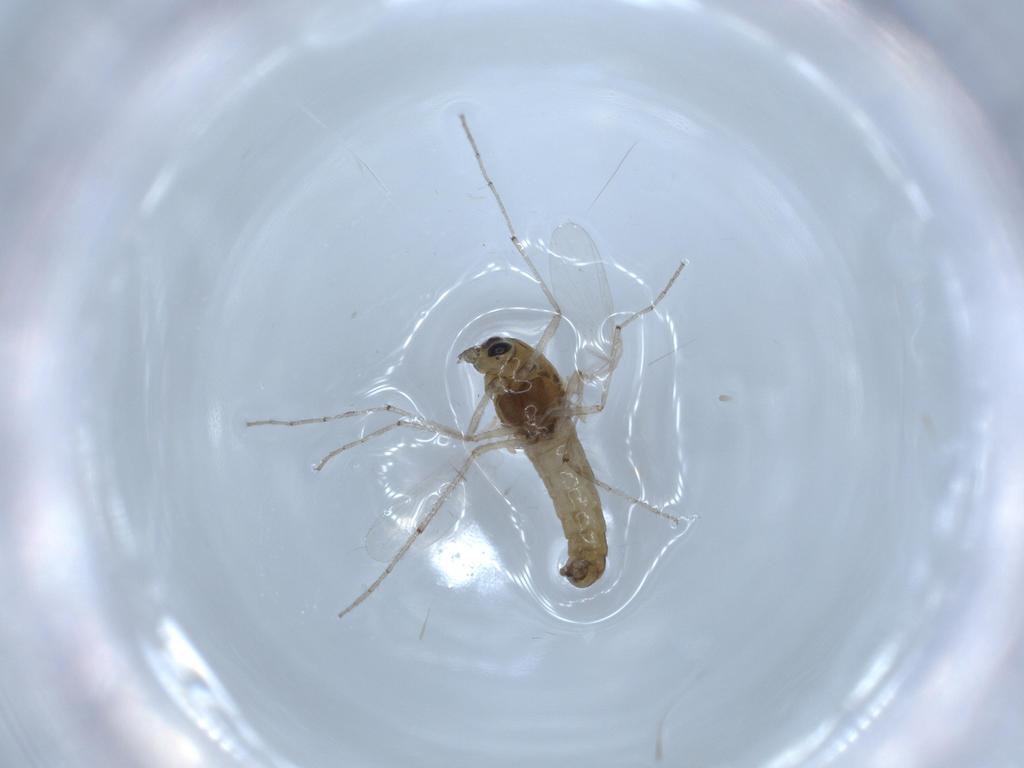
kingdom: Animalia
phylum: Arthropoda
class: Insecta
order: Diptera
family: Chironomidae
